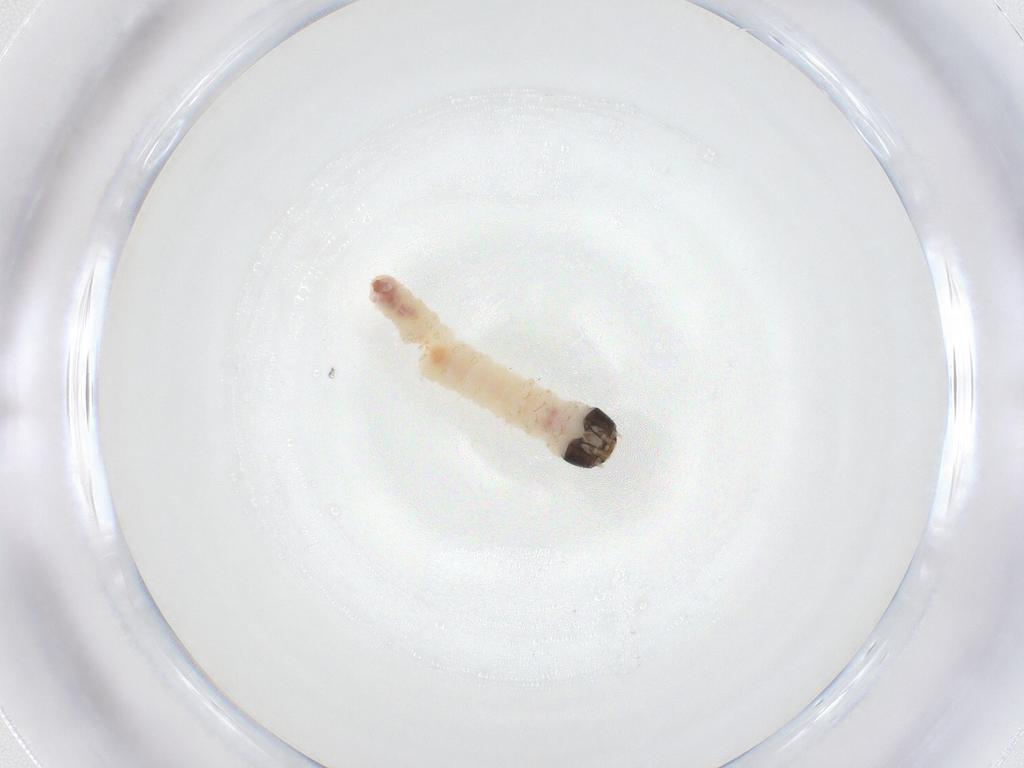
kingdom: Animalia
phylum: Arthropoda
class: Insecta
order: Lepidoptera
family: Tortricidae
